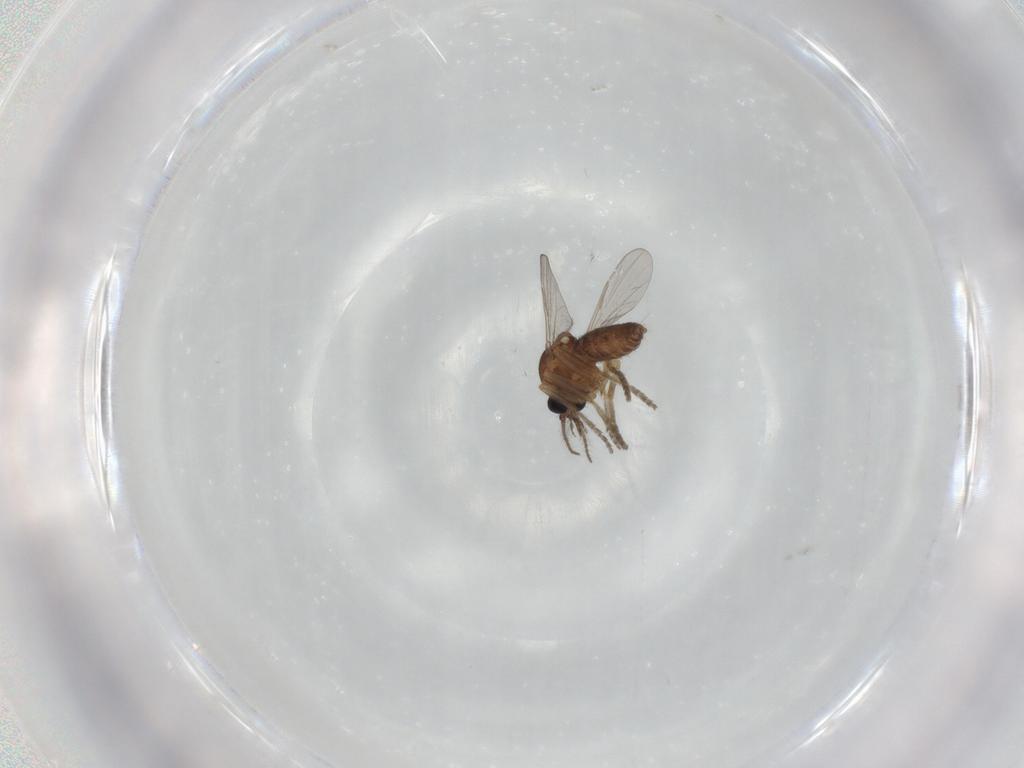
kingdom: Animalia
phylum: Arthropoda
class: Insecta
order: Diptera
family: Ceratopogonidae
